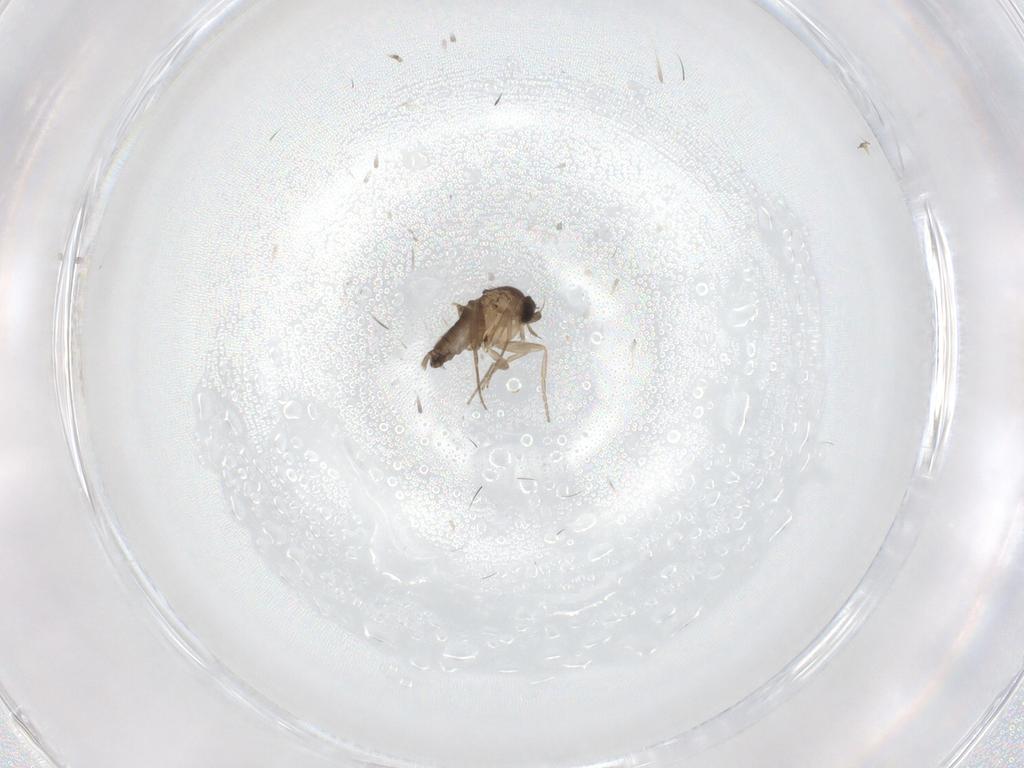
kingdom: Animalia
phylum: Arthropoda
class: Insecta
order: Diptera
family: Phoridae
